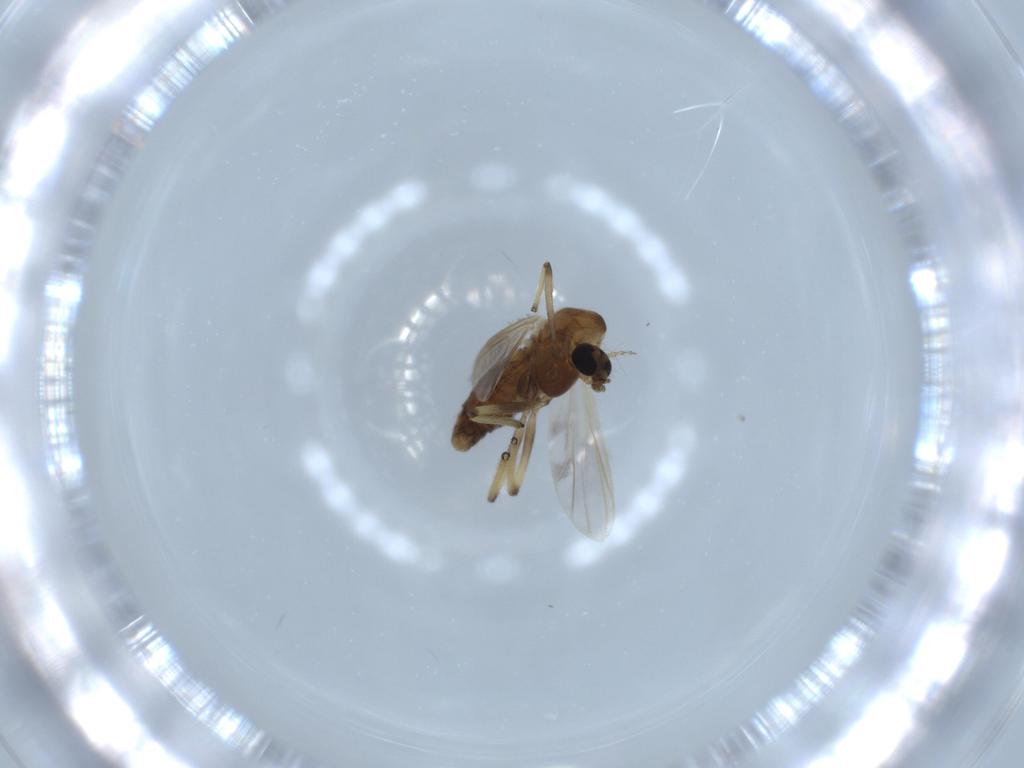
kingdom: Animalia
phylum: Arthropoda
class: Insecta
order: Diptera
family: Chironomidae
